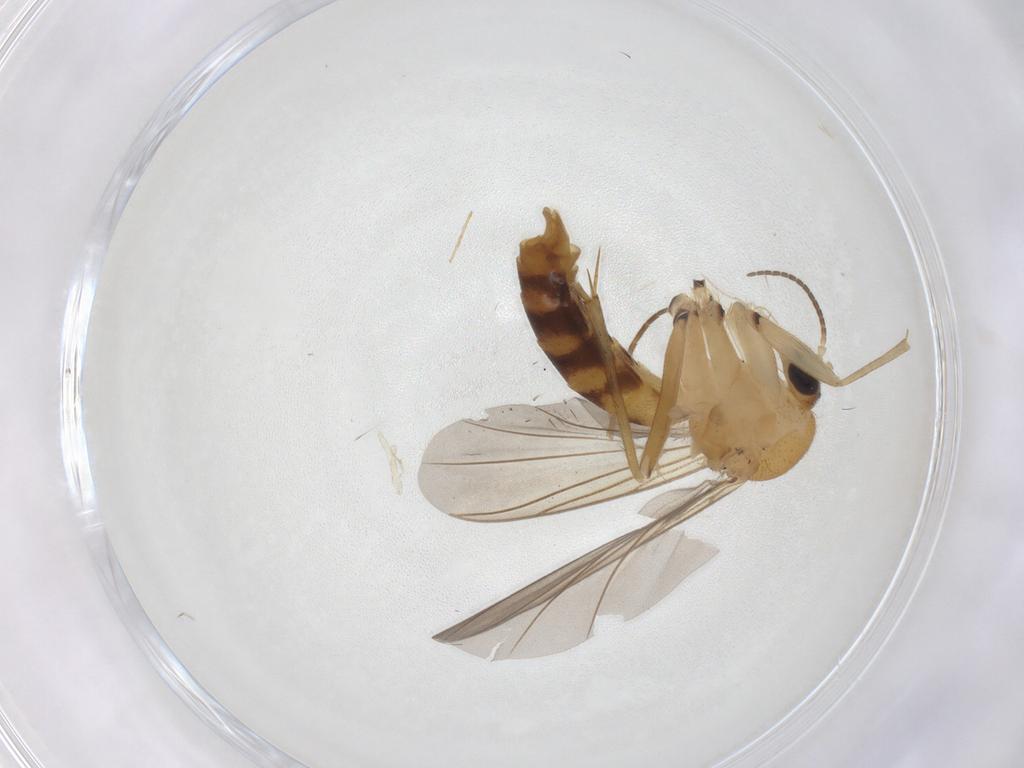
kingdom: Animalia
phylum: Arthropoda
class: Insecta
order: Diptera
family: Mycetophilidae
